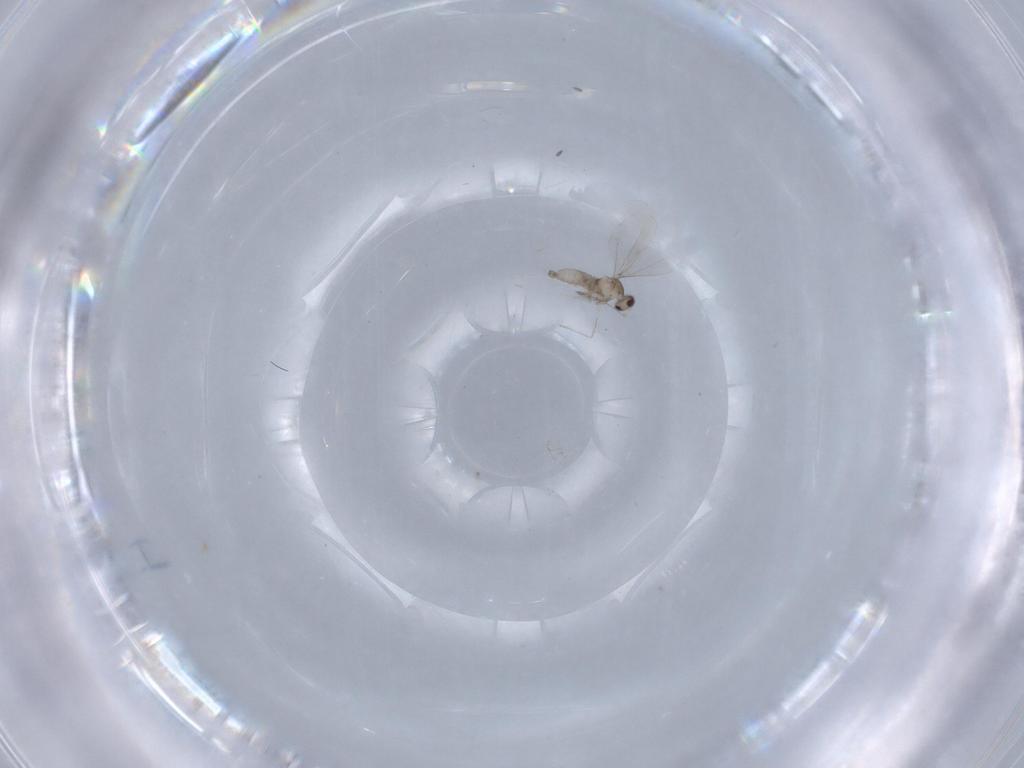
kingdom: Animalia
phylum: Arthropoda
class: Insecta
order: Diptera
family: Cecidomyiidae
